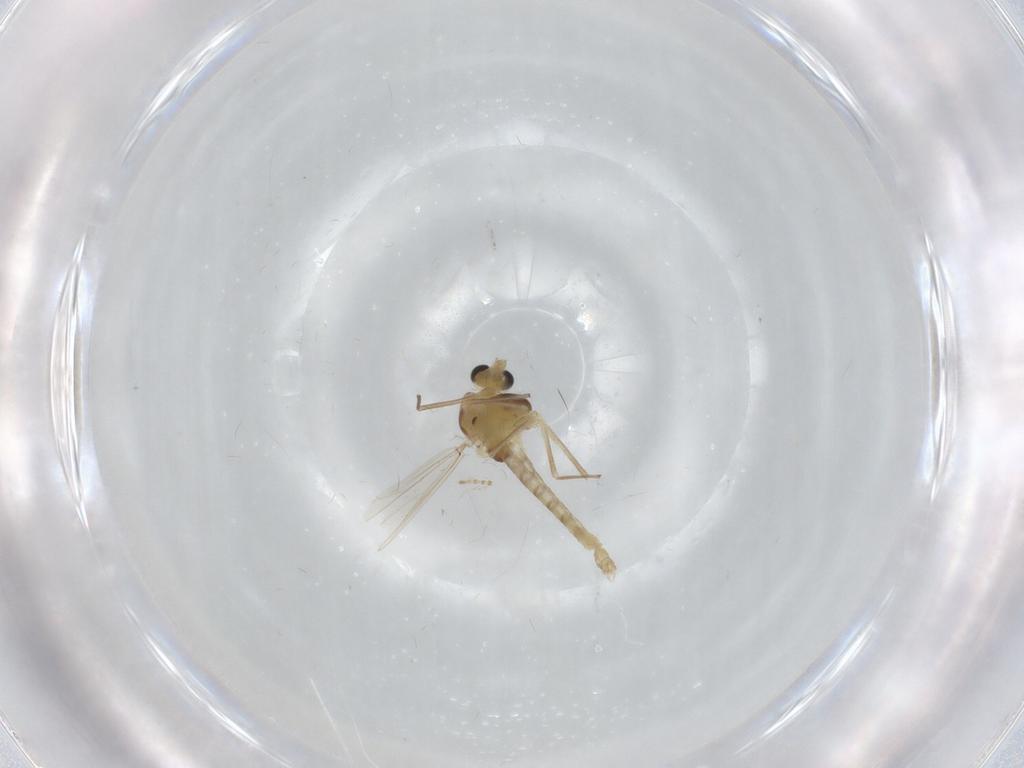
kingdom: Animalia
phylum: Arthropoda
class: Insecta
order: Diptera
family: Chironomidae
